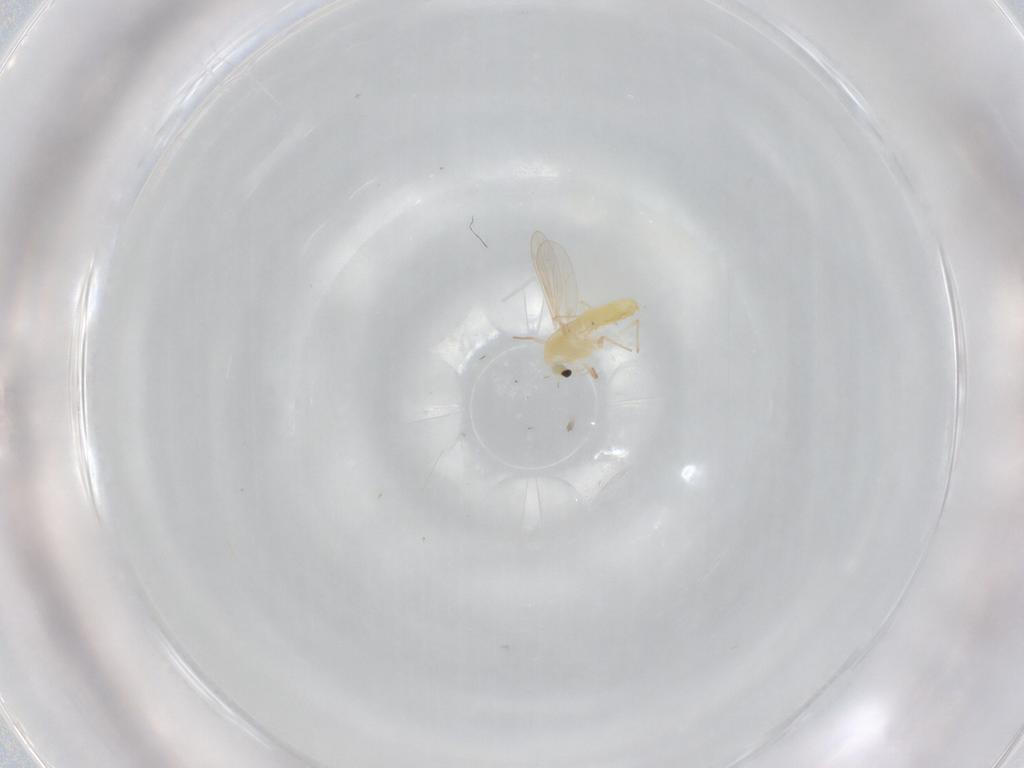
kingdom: Animalia
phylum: Arthropoda
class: Insecta
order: Diptera
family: Chironomidae
